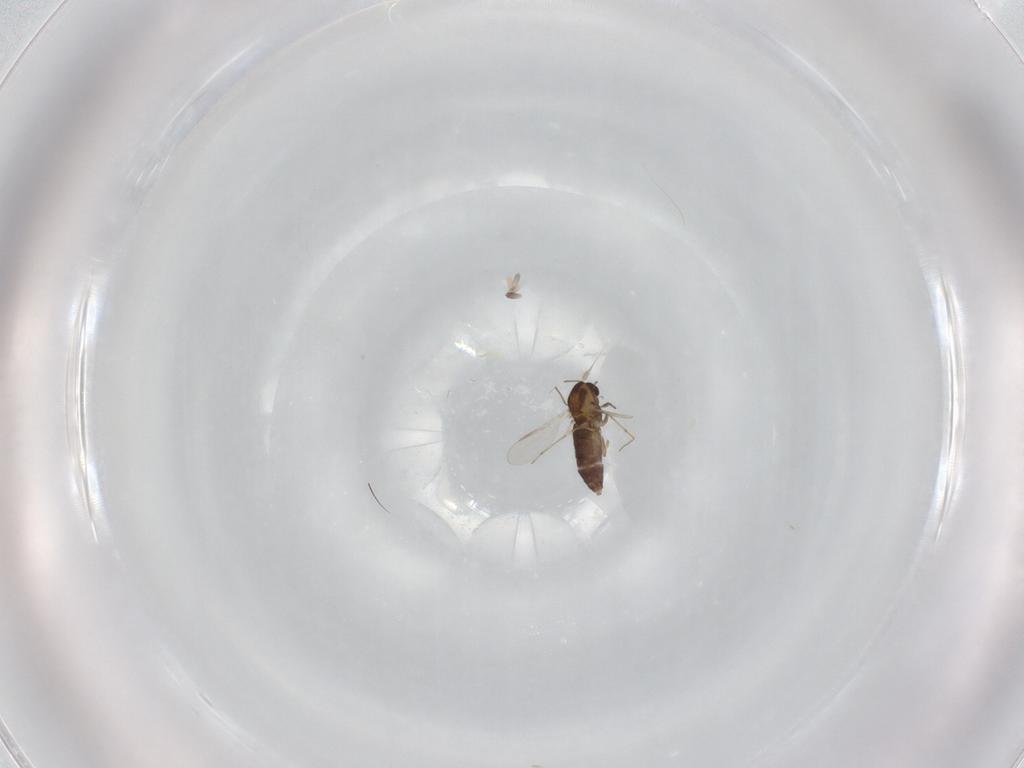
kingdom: Animalia
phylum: Arthropoda
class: Insecta
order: Diptera
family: Chironomidae
